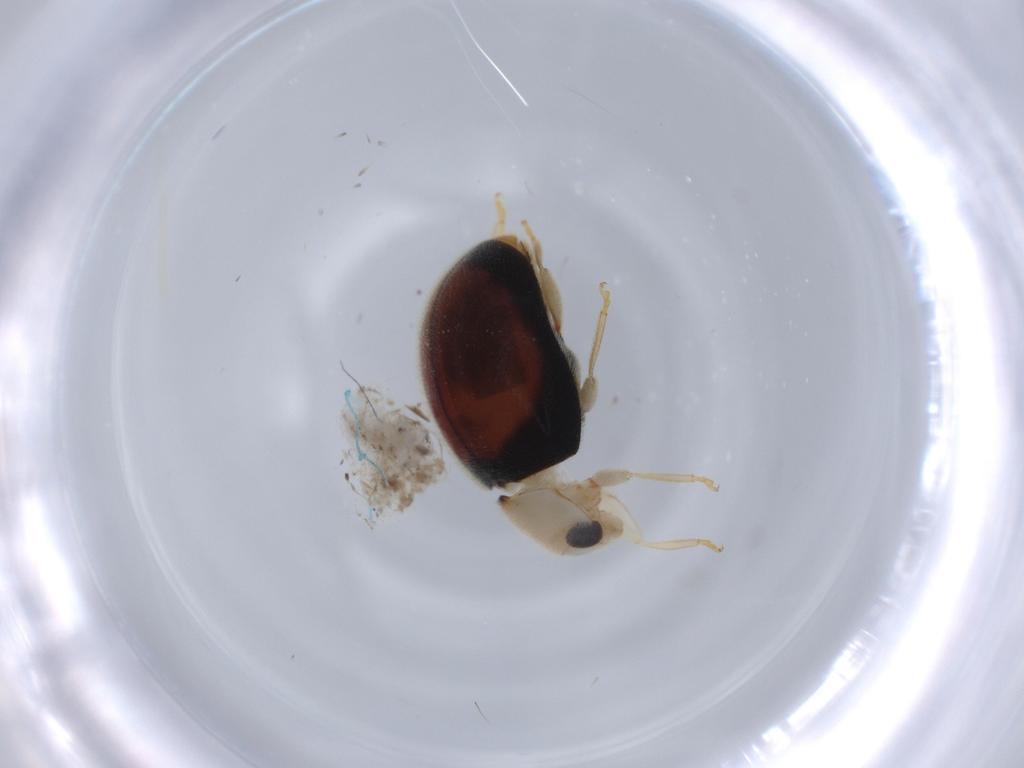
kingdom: Animalia
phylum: Arthropoda
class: Insecta
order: Coleoptera
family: Coccinellidae
